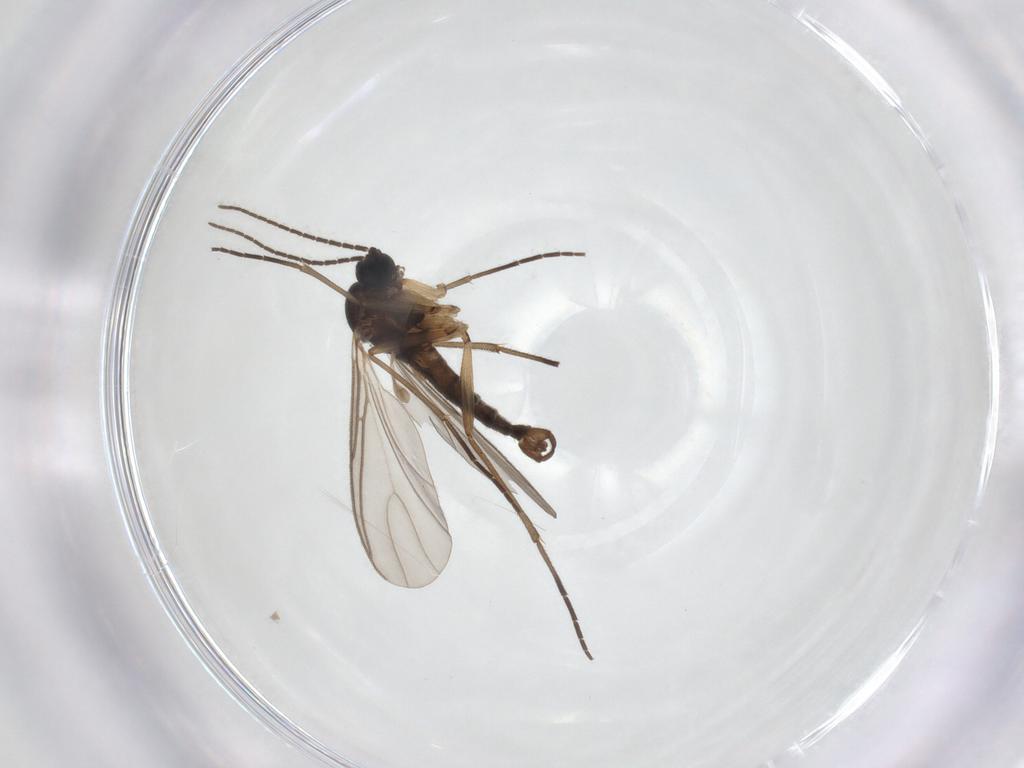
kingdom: Animalia
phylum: Arthropoda
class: Insecta
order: Diptera
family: Sciaridae
